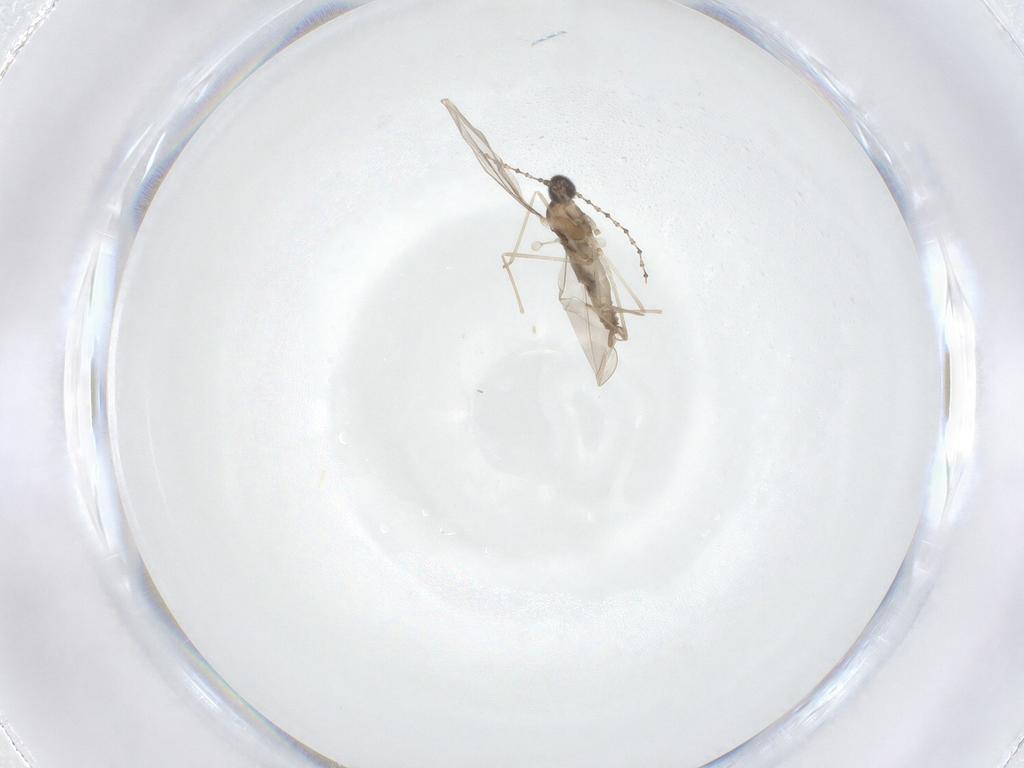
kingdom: Animalia
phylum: Arthropoda
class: Insecta
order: Diptera
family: Cecidomyiidae
